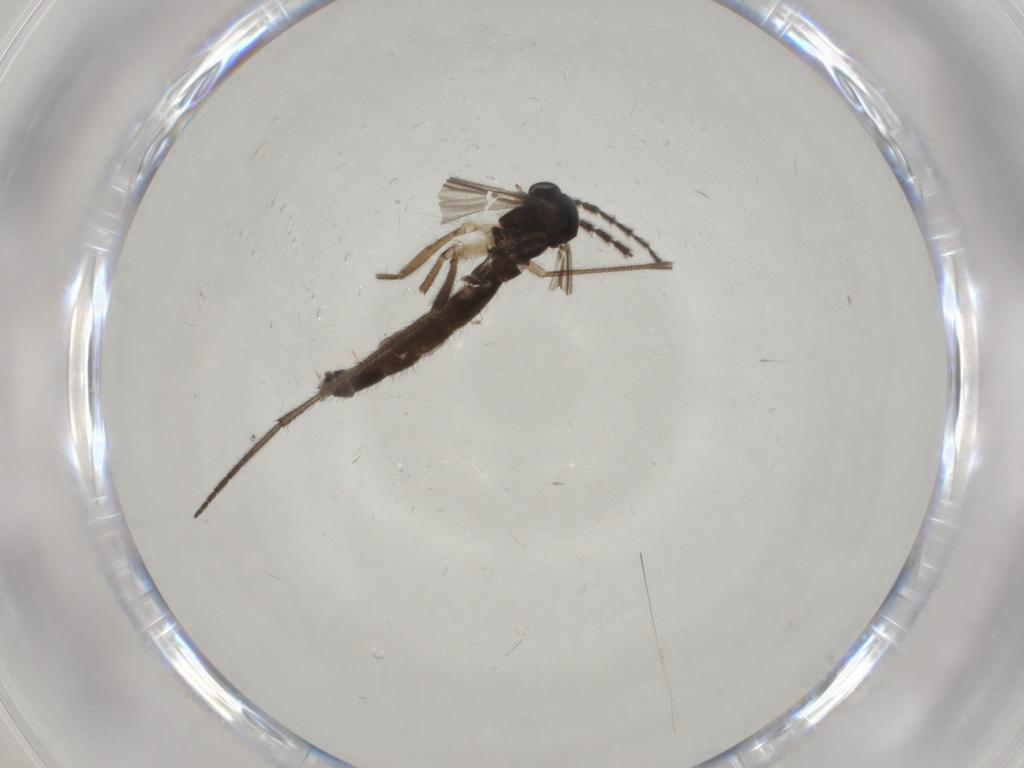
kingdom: Animalia
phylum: Arthropoda
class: Insecta
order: Diptera
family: Sciaridae
